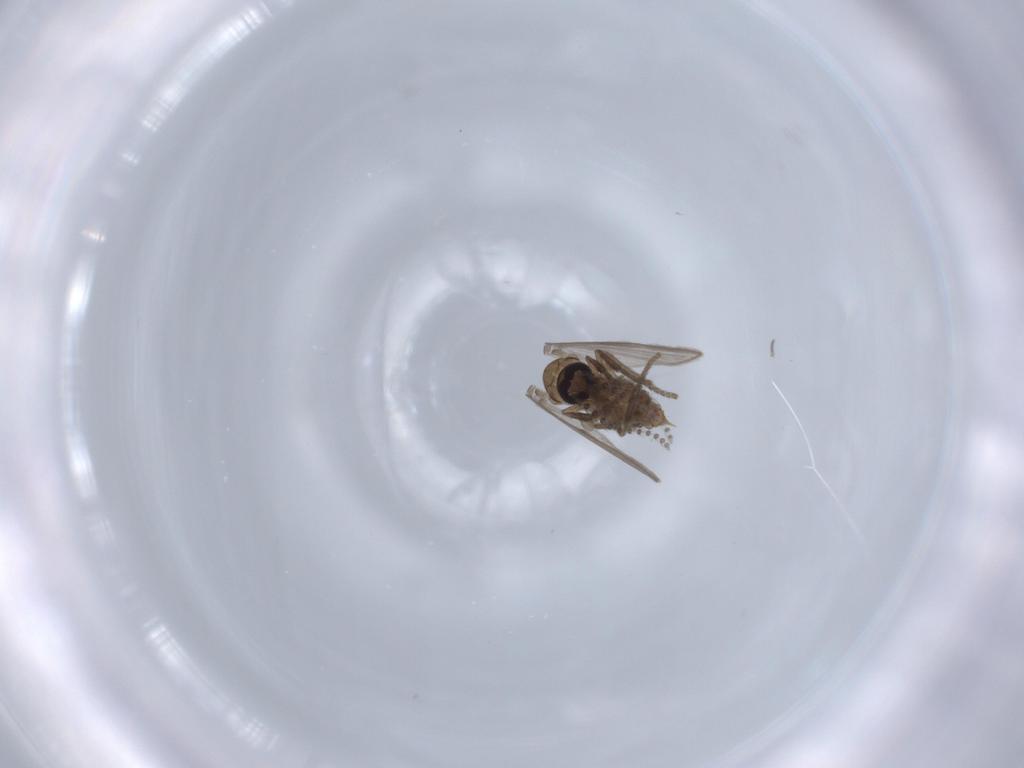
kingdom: Animalia
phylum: Arthropoda
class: Insecta
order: Diptera
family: Psychodidae
